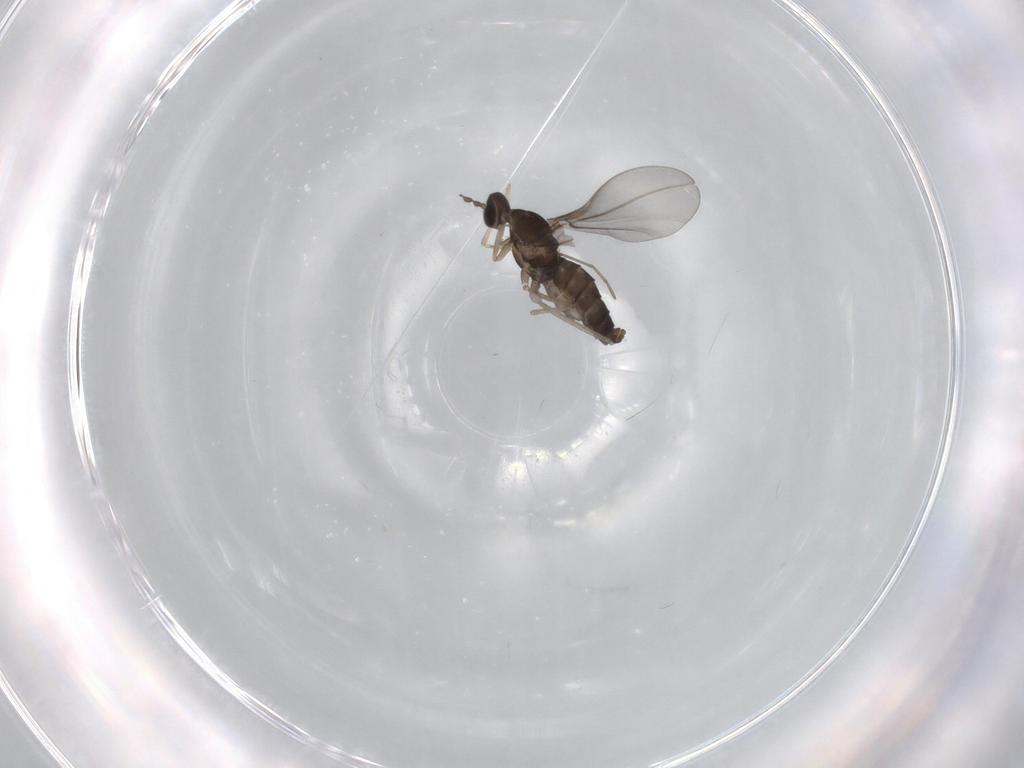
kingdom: Animalia
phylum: Arthropoda
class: Insecta
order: Diptera
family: Cecidomyiidae
